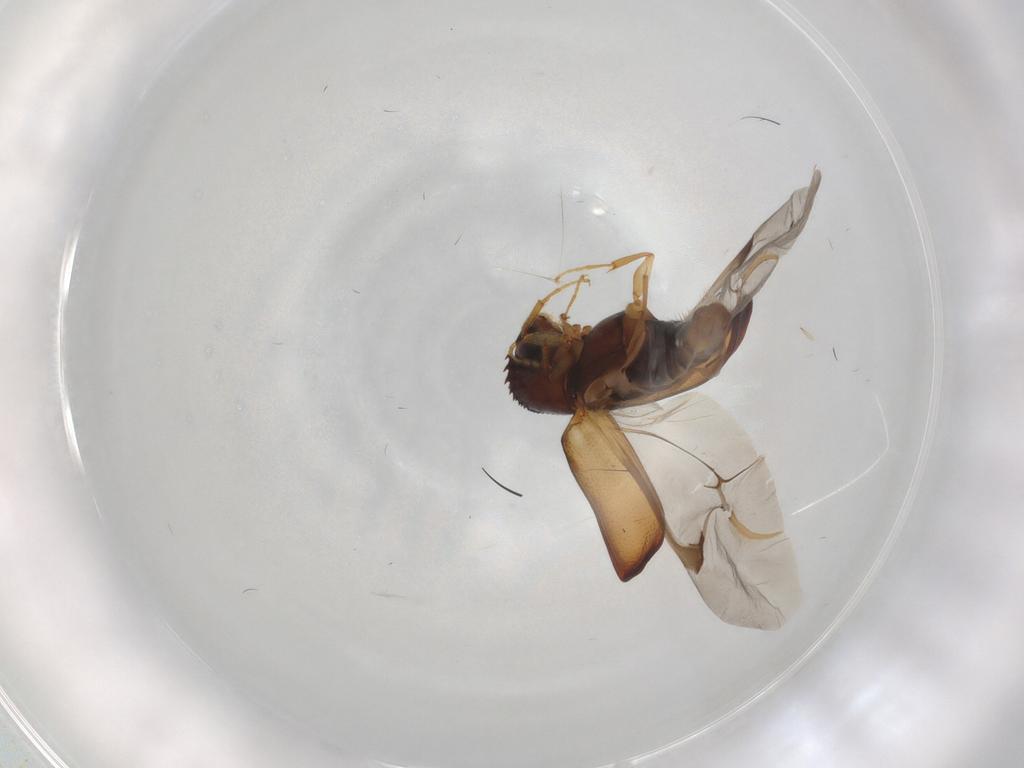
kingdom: Animalia
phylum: Arthropoda
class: Insecta
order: Coleoptera
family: Bostrichidae
